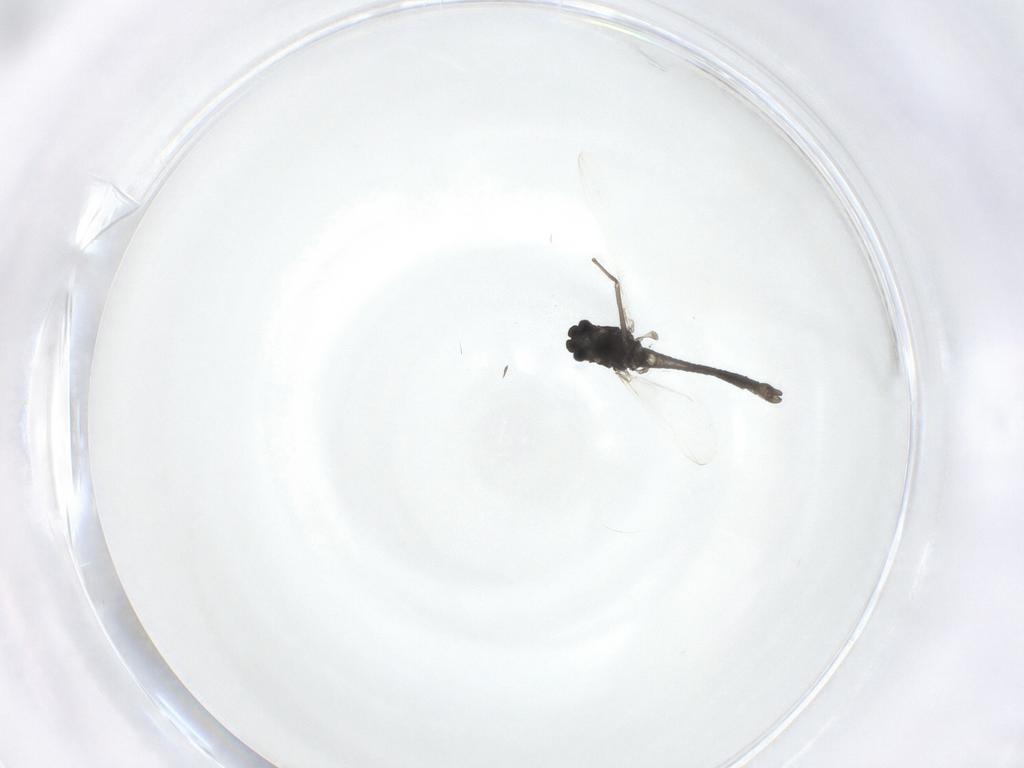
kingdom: Animalia
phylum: Arthropoda
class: Insecta
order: Diptera
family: Chironomidae
